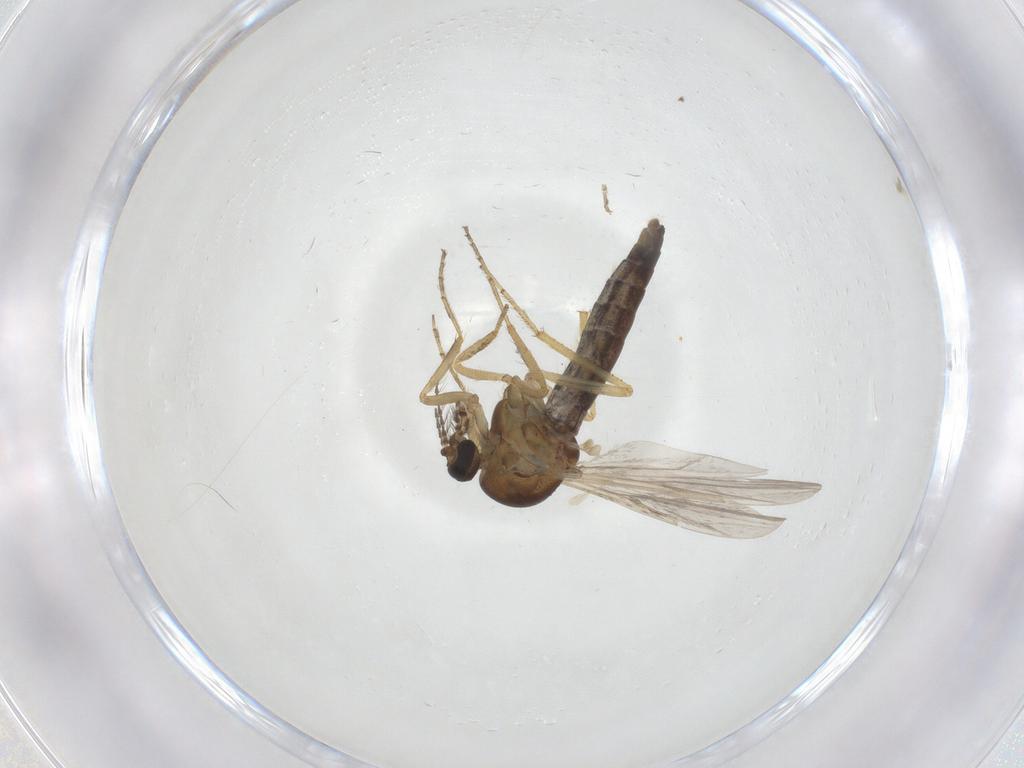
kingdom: Animalia
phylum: Arthropoda
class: Insecta
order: Diptera
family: Ceratopogonidae
